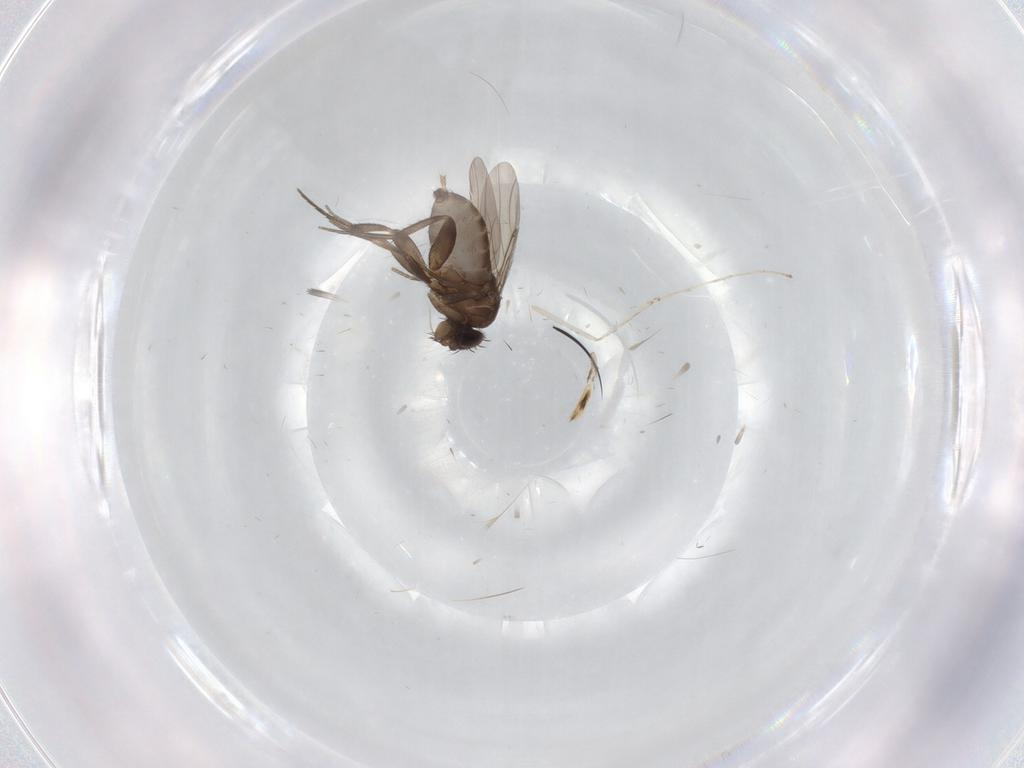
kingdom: Animalia
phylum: Arthropoda
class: Insecta
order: Diptera
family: Phoridae
